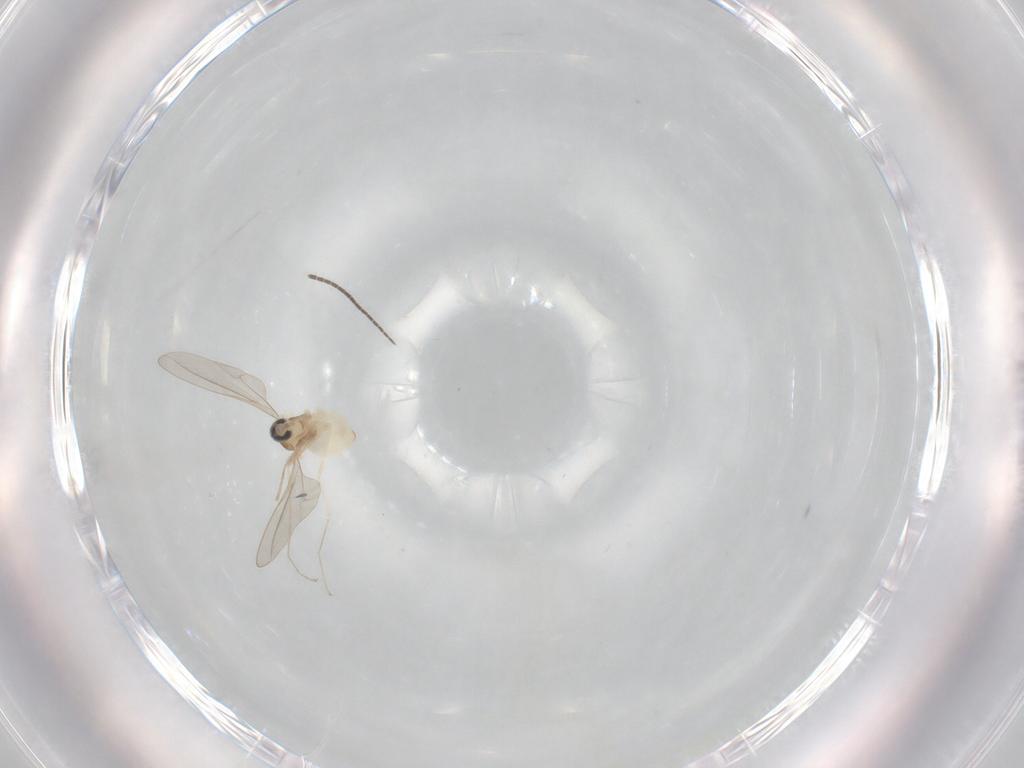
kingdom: Animalia
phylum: Arthropoda
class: Insecta
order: Diptera
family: Cecidomyiidae
